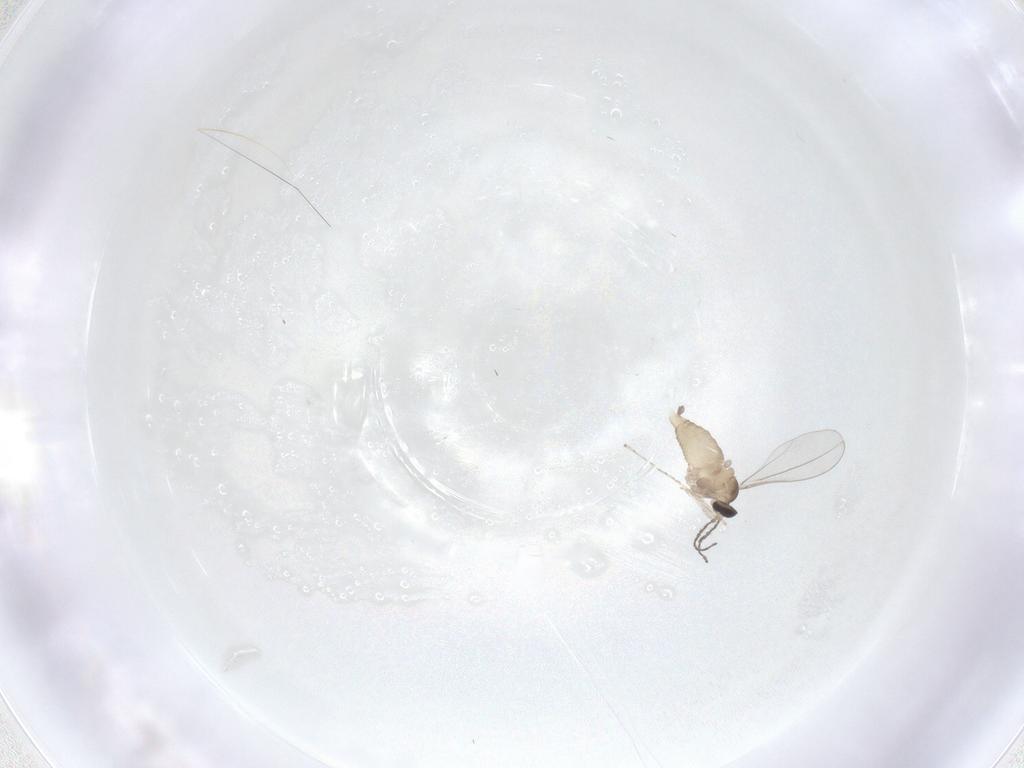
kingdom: Animalia
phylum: Arthropoda
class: Insecta
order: Diptera
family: Cecidomyiidae
